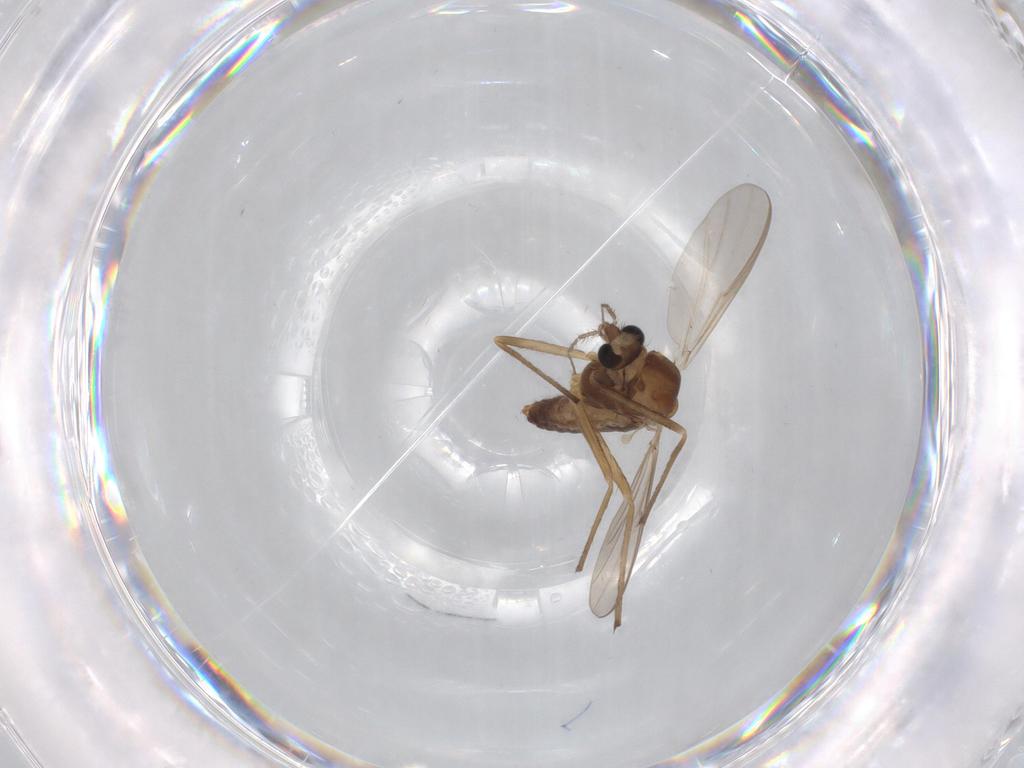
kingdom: Animalia
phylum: Arthropoda
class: Insecta
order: Diptera
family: Chironomidae
